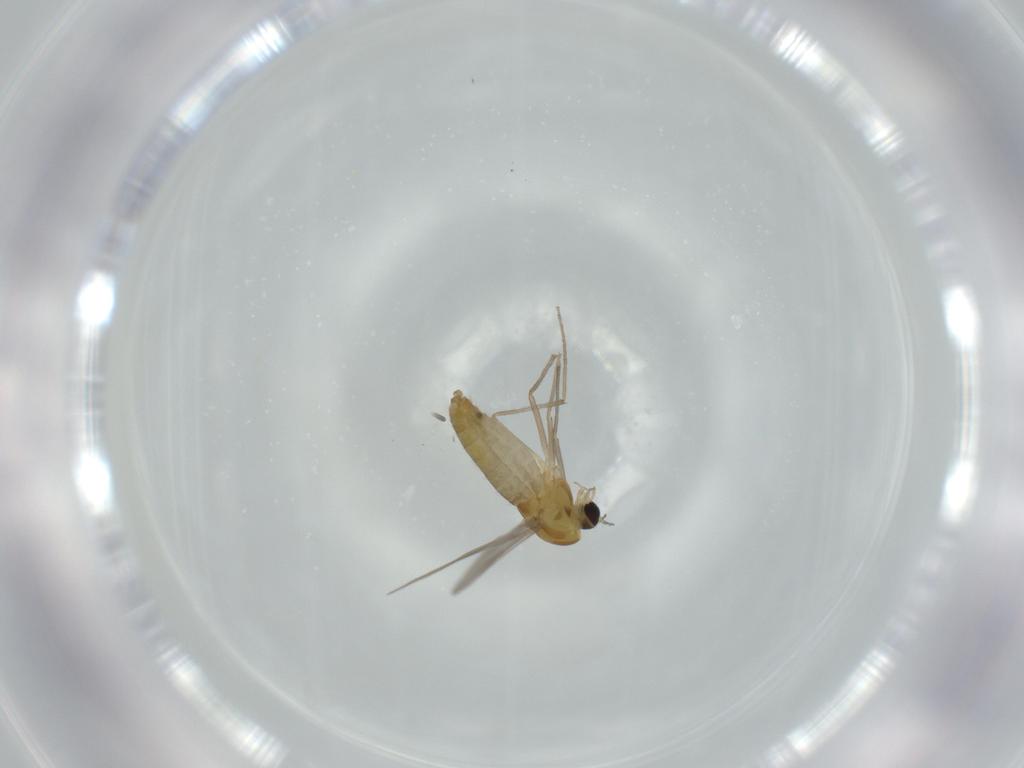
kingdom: Animalia
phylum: Arthropoda
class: Insecta
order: Diptera
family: Chironomidae
